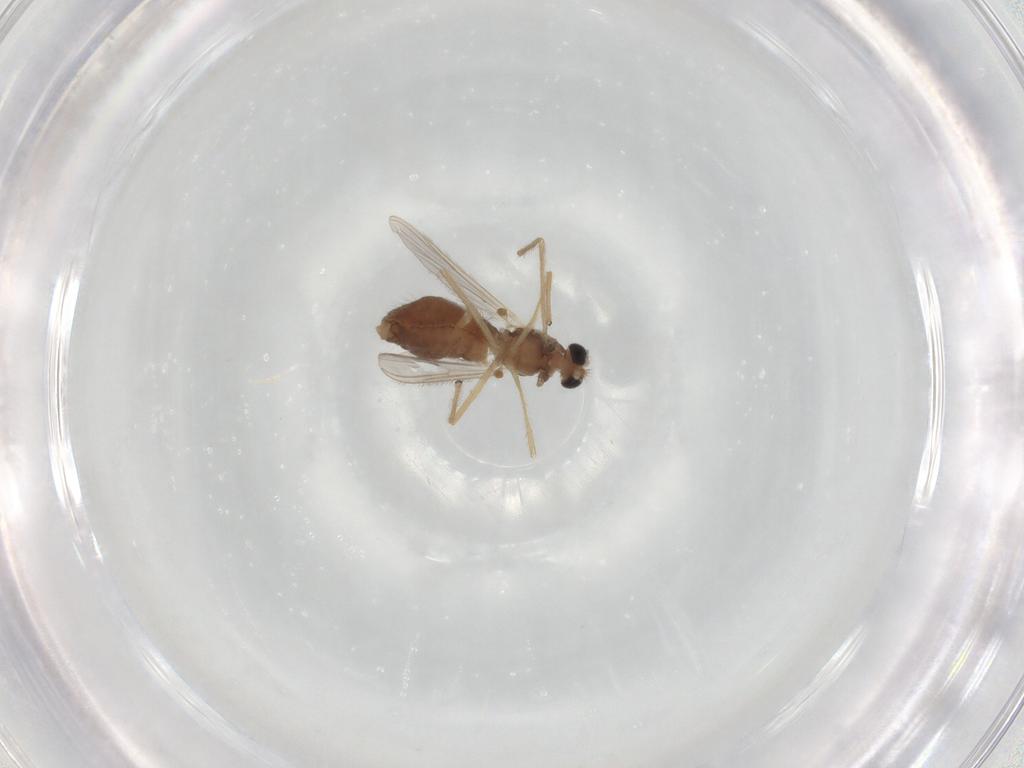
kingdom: Animalia
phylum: Arthropoda
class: Insecta
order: Diptera
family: Chironomidae
